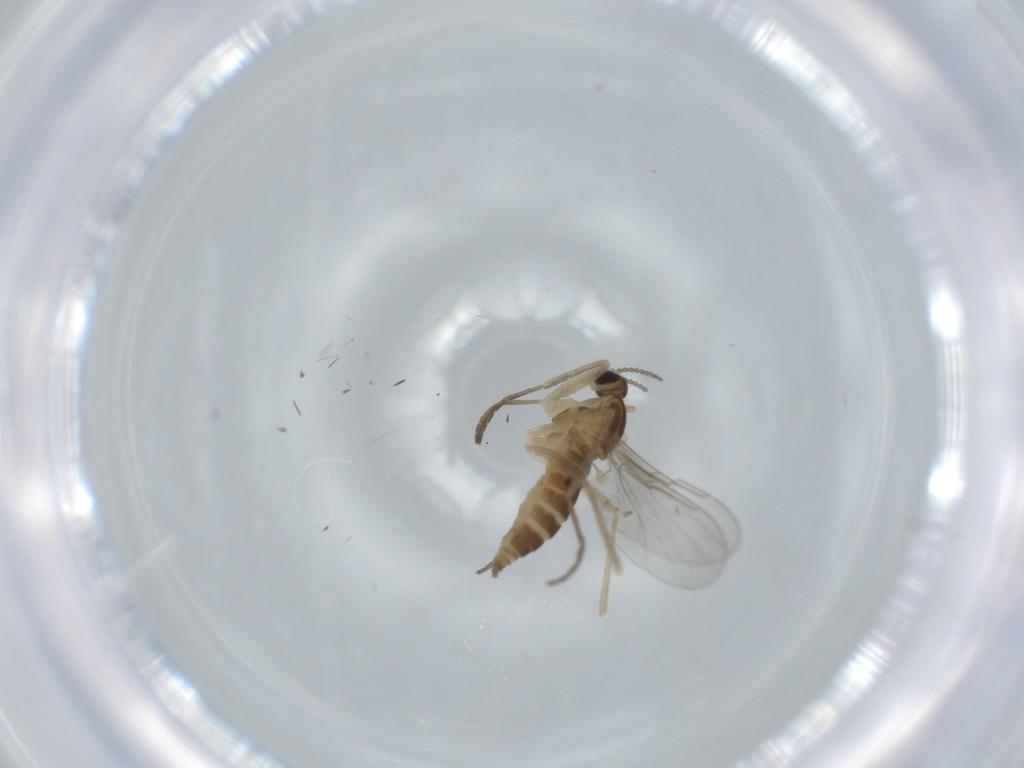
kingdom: Animalia
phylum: Arthropoda
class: Insecta
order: Diptera
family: Cecidomyiidae
